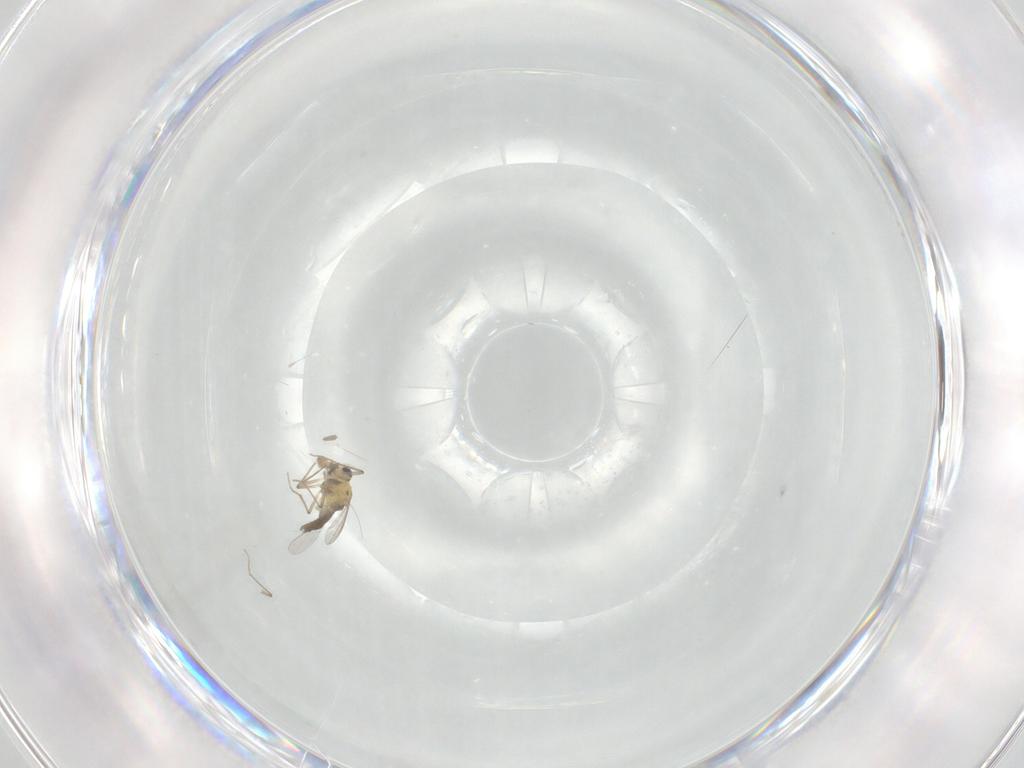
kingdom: Animalia
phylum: Arthropoda
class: Insecta
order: Diptera
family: Chironomidae
